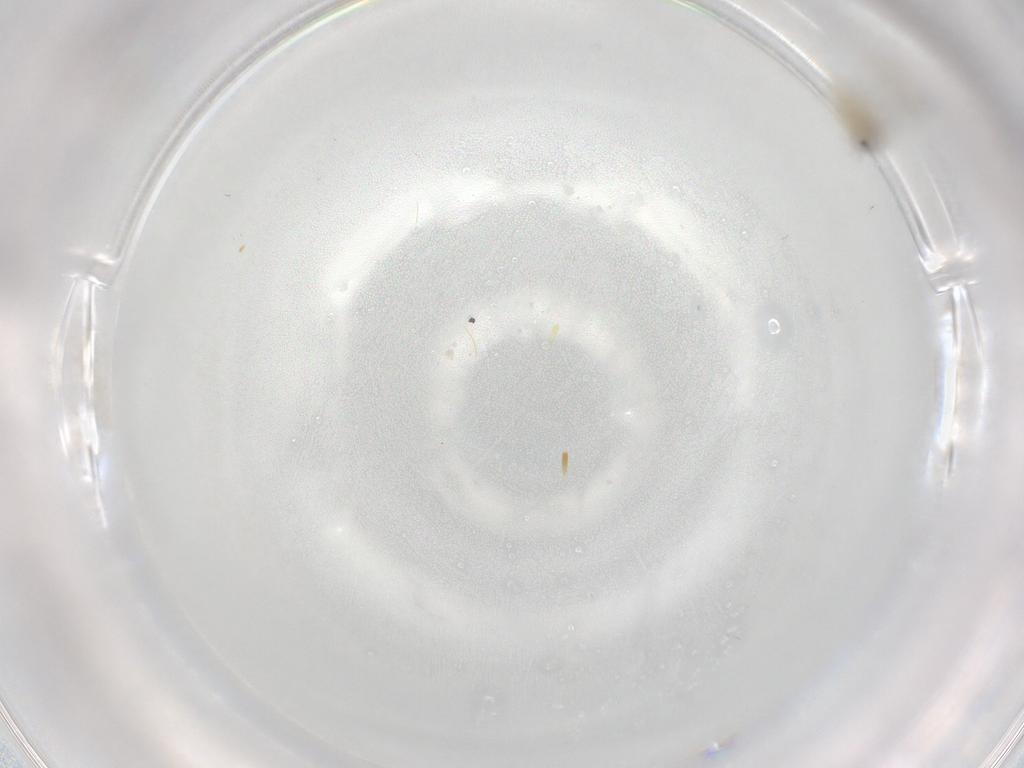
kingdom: Animalia
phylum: Arthropoda
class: Insecta
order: Diptera
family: Cecidomyiidae
